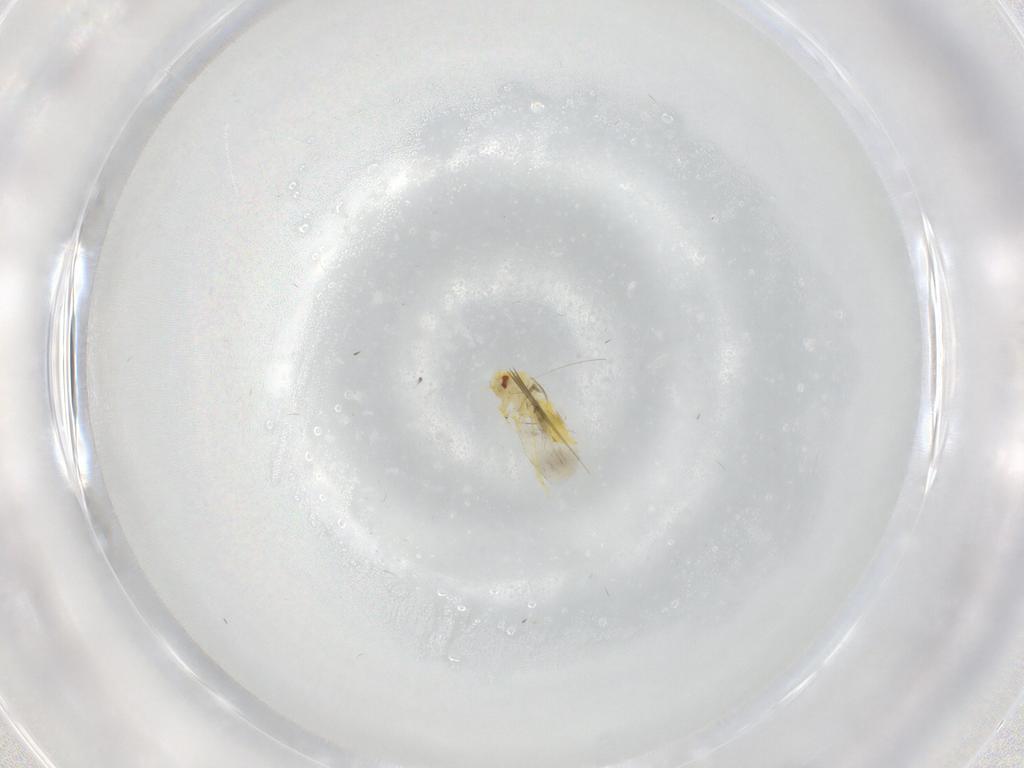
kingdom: Animalia
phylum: Arthropoda
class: Insecta
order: Hemiptera
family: Aleyrodidae
